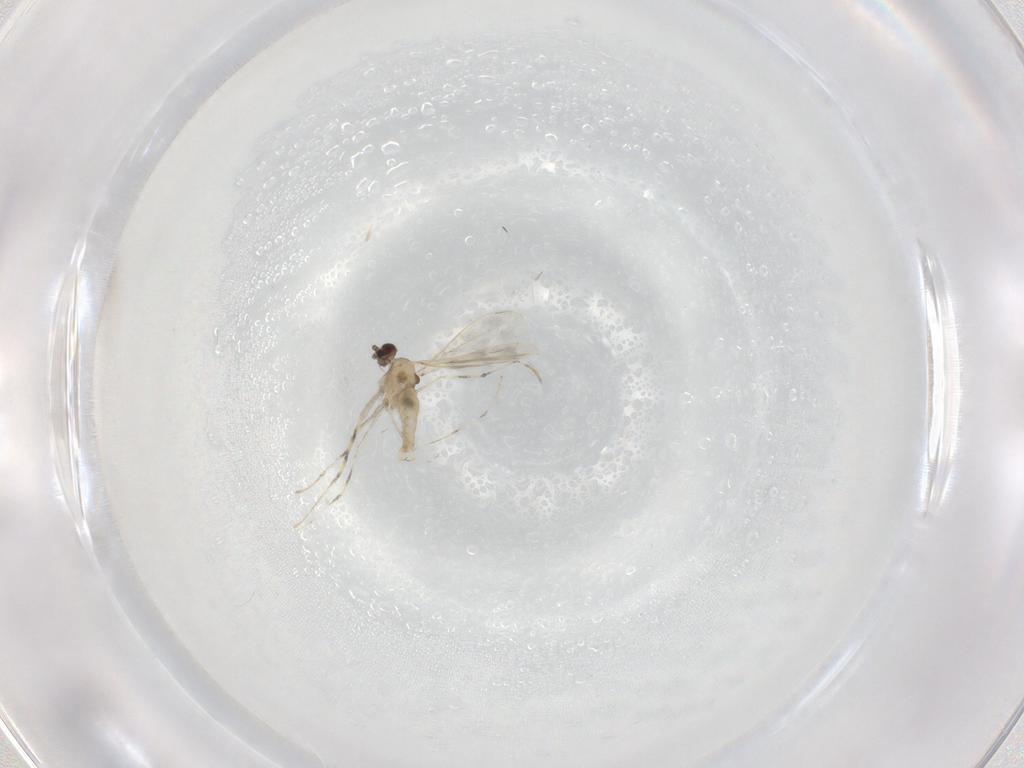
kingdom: Animalia
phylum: Arthropoda
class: Insecta
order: Diptera
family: Cecidomyiidae
